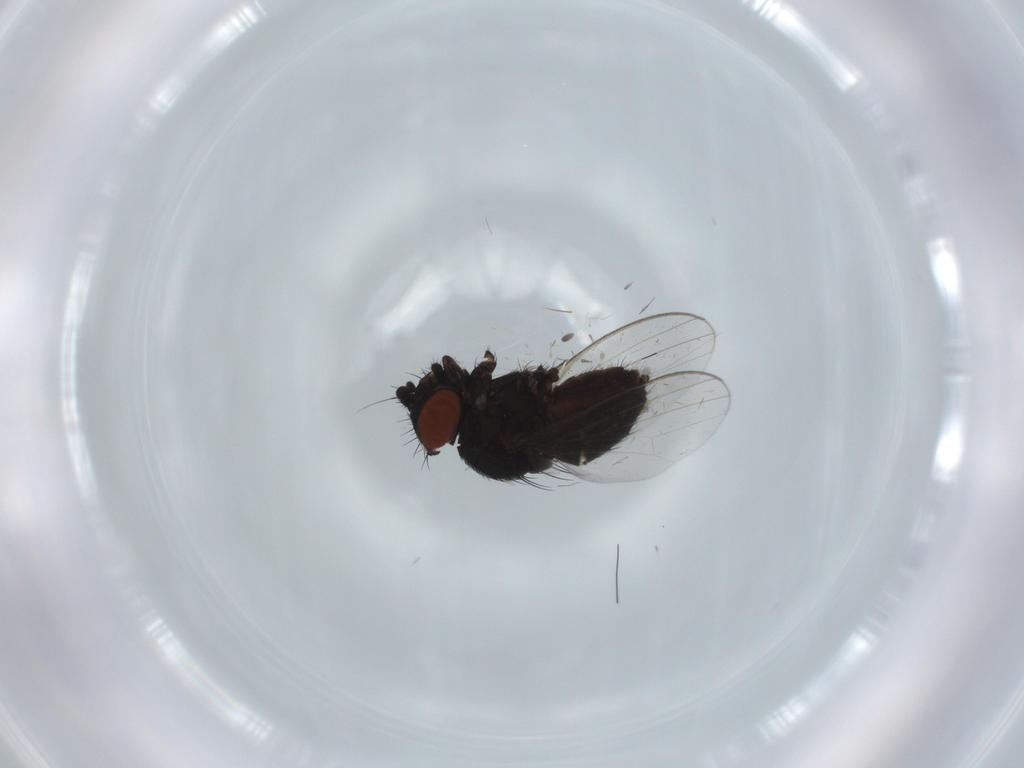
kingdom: Animalia
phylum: Arthropoda
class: Insecta
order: Diptera
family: Milichiidae
